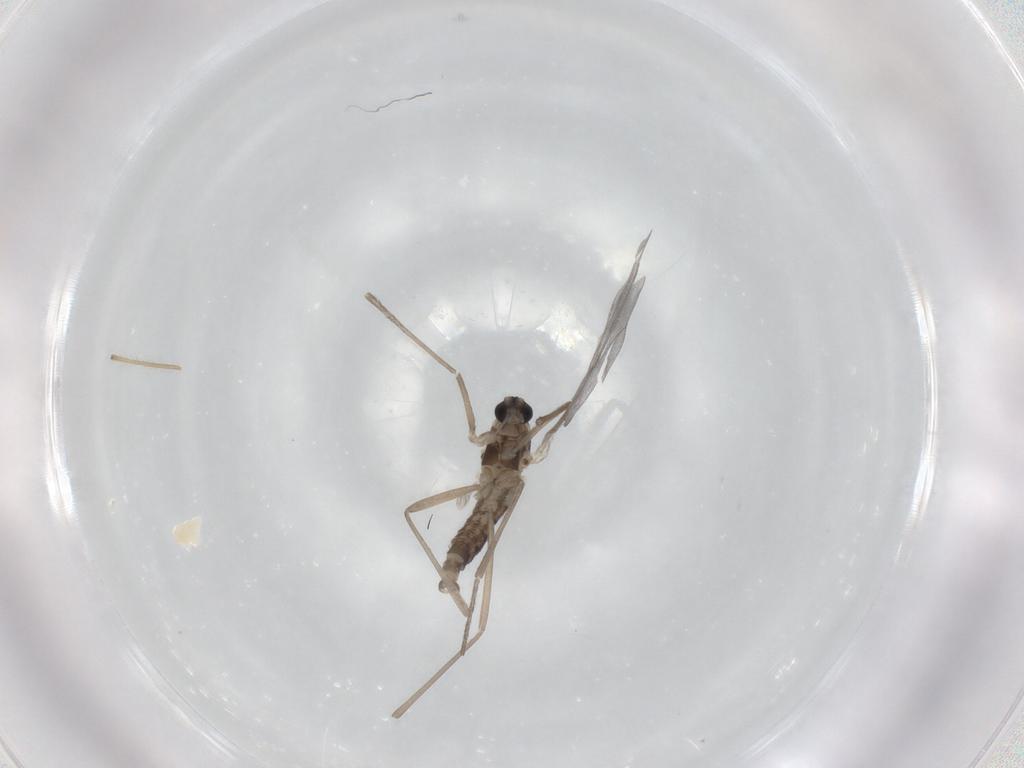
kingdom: Animalia
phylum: Arthropoda
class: Insecta
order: Diptera
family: Cecidomyiidae
